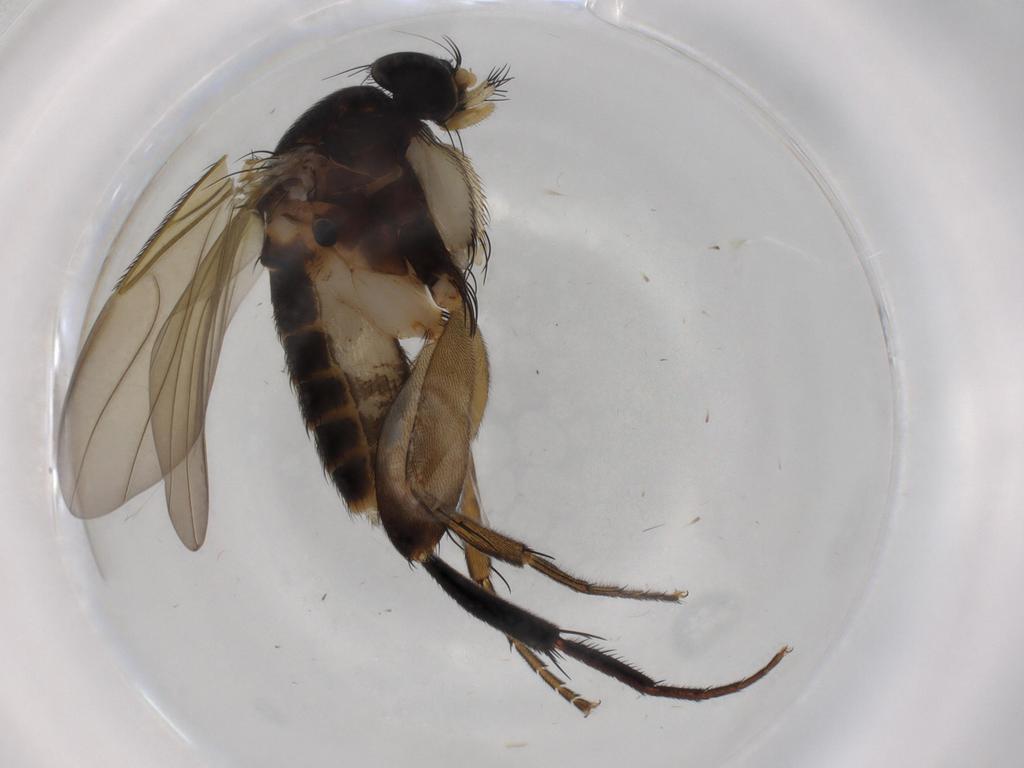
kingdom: Animalia
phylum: Arthropoda
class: Insecta
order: Diptera
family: Phoridae
